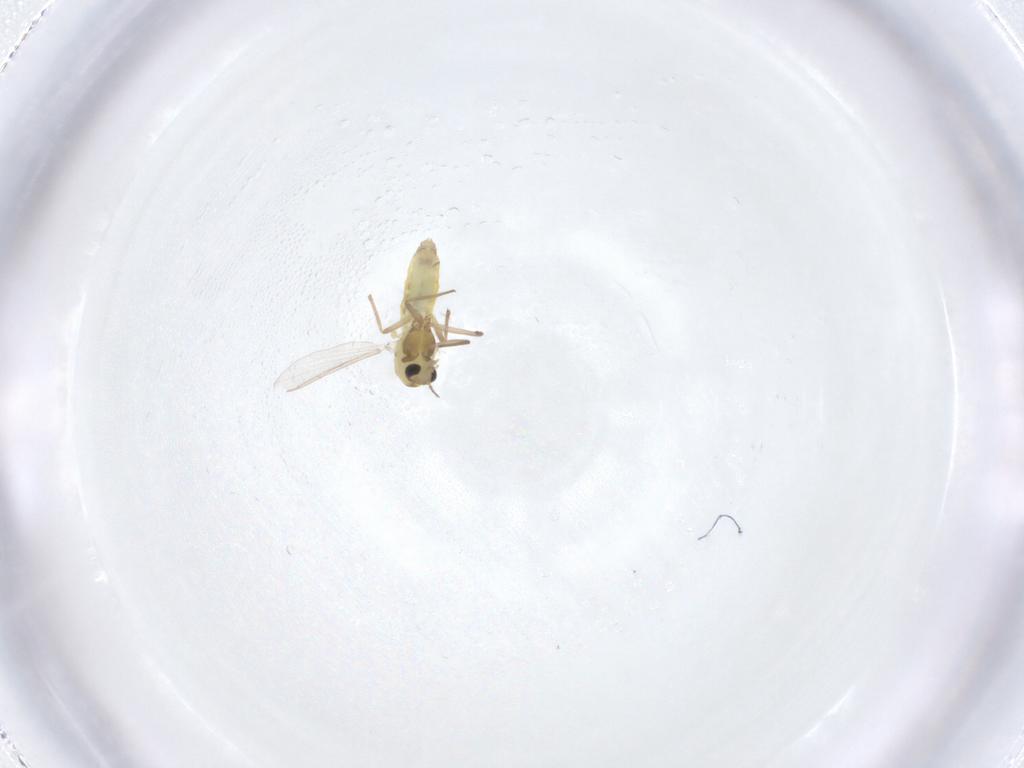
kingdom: Animalia
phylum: Arthropoda
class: Insecta
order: Diptera
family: Chironomidae
